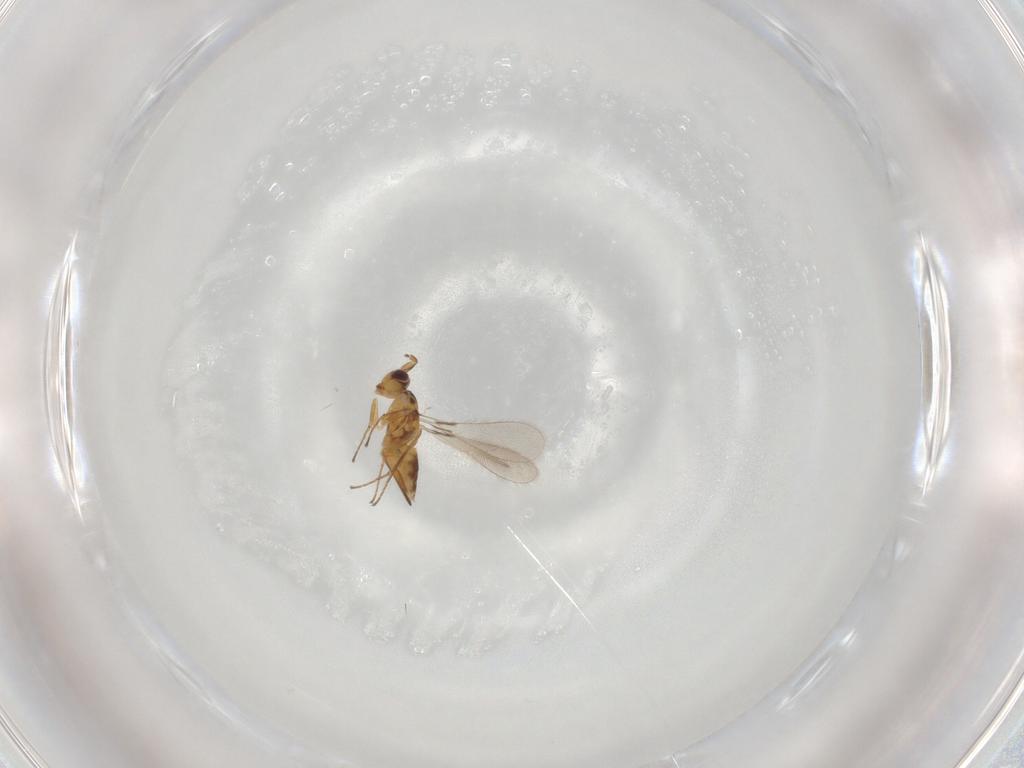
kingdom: Animalia
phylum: Arthropoda
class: Insecta
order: Hymenoptera
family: Mymaridae
